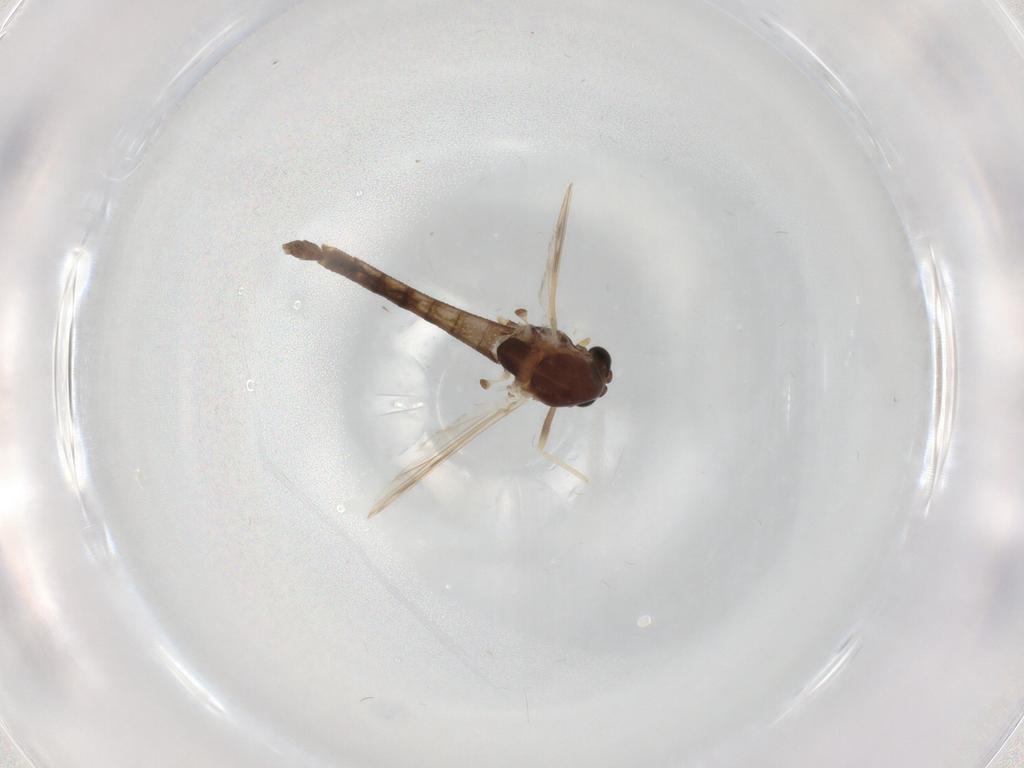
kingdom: Animalia
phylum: Arthropoda
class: Insecta
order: Diptera
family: Chironomidae
